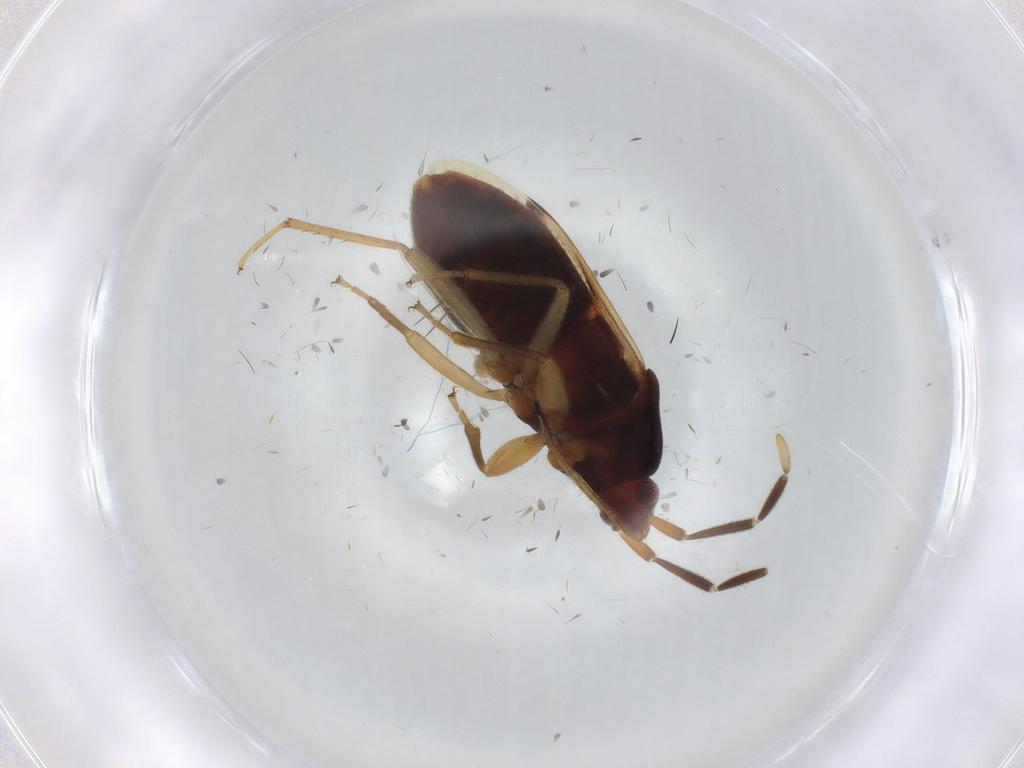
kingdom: Animalia
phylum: Arthropoda
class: Insecta
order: Hemiptera
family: Rhyparochromidae
